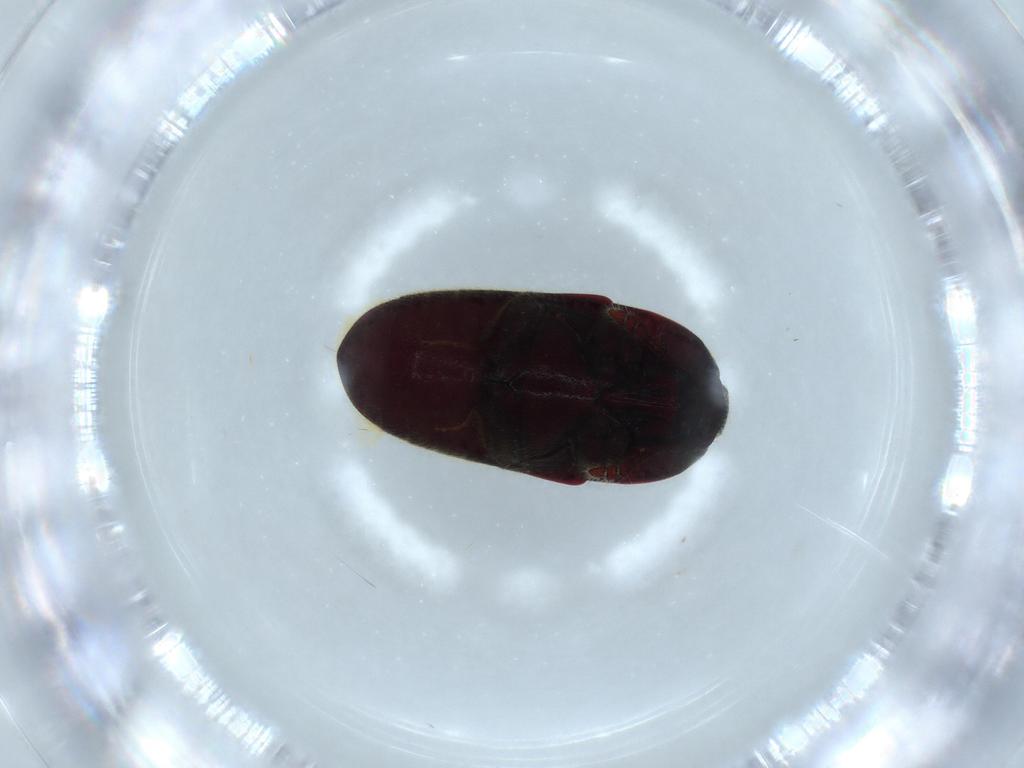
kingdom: Animalia
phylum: Arthropoda
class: Insecta
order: Coleoptera
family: Throscidae
